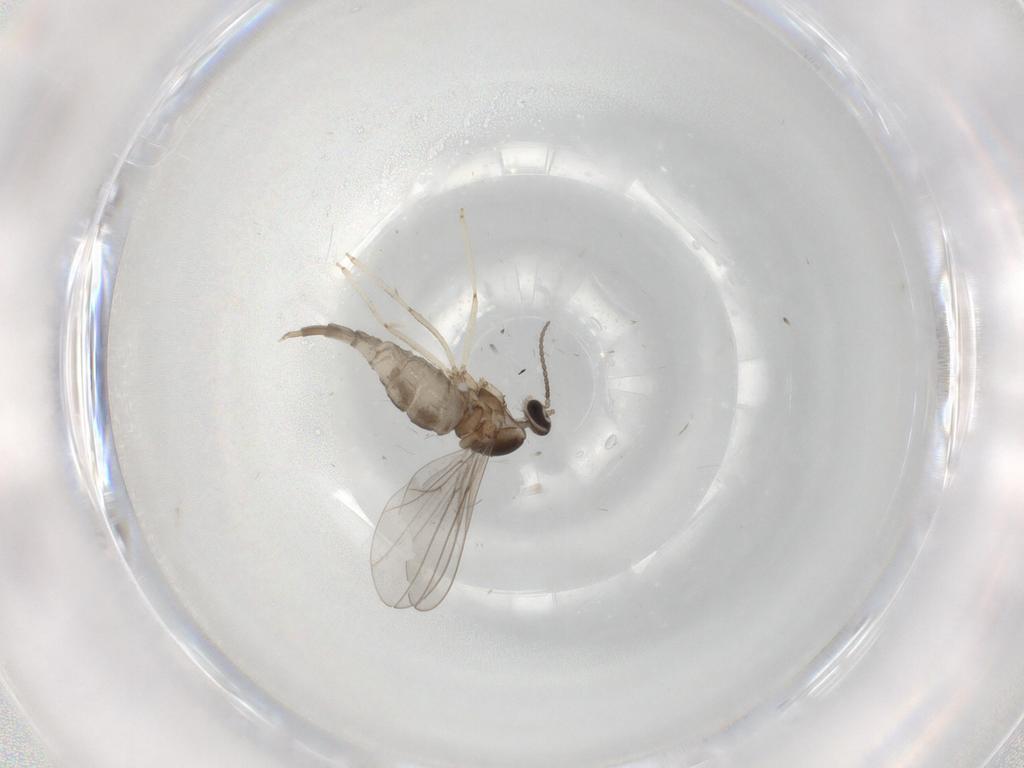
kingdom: Animalia
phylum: Arthropoda
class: Insecta
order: Diptera
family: Cecidomyiidae
